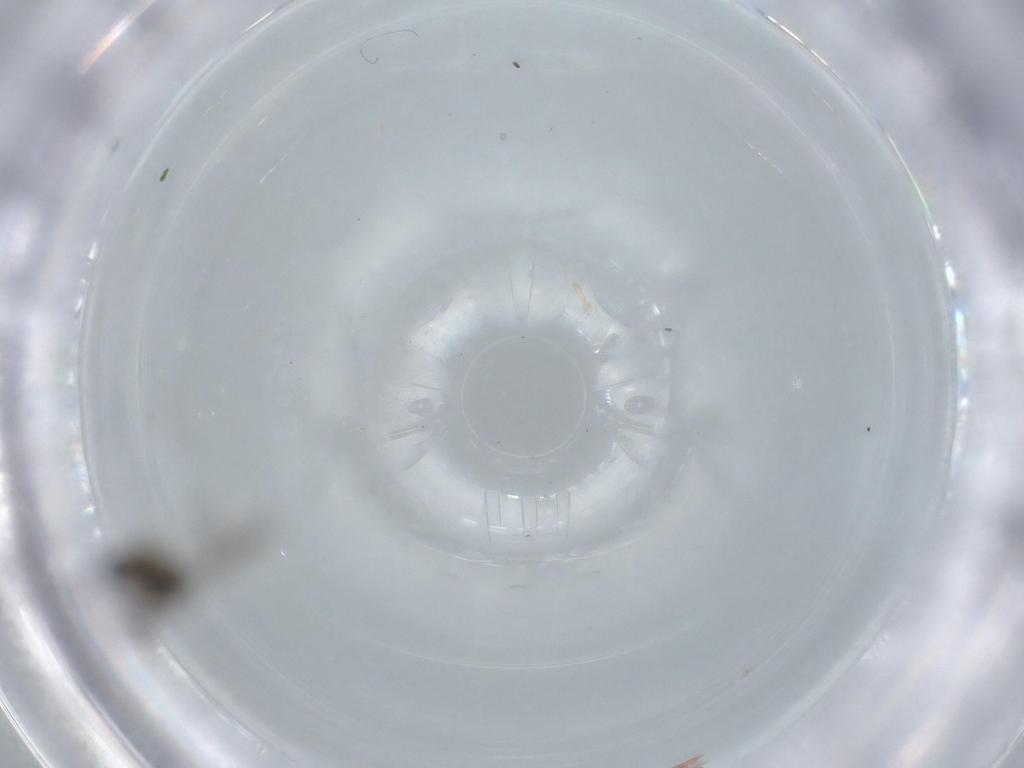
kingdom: Animalia
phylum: Arthropoda
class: Insecta
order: Diptera
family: Cecidomyiidae
